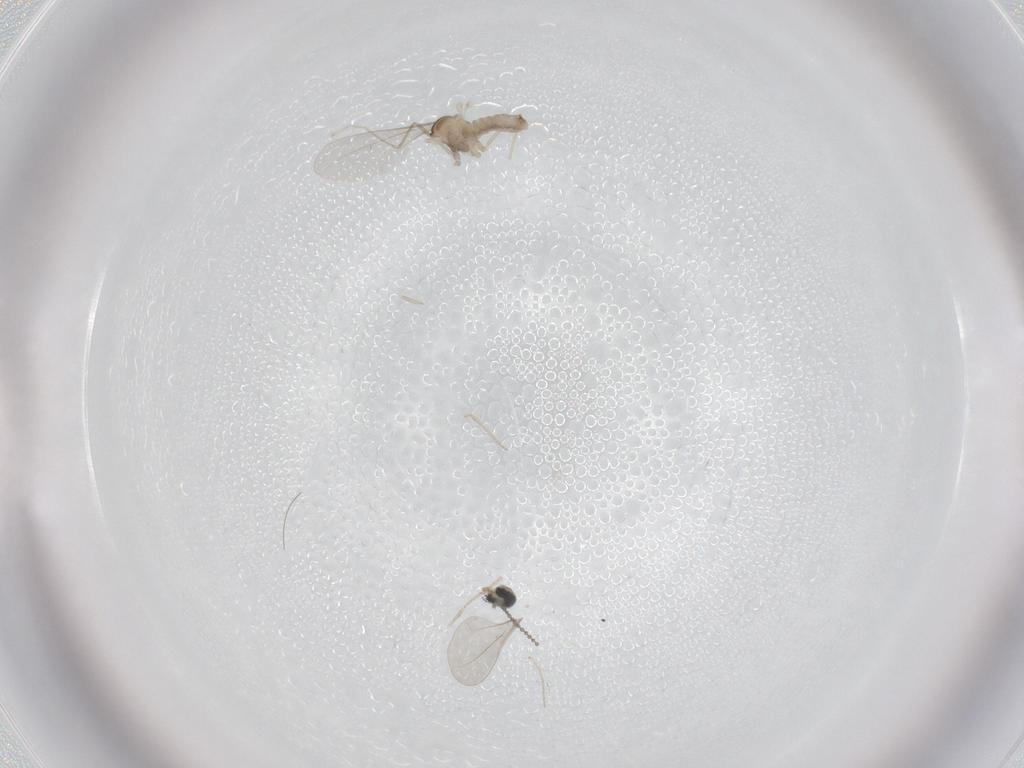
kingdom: Animalia
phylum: Arthropoda
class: Insecta
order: Diptera
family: Cecidomyiidae
